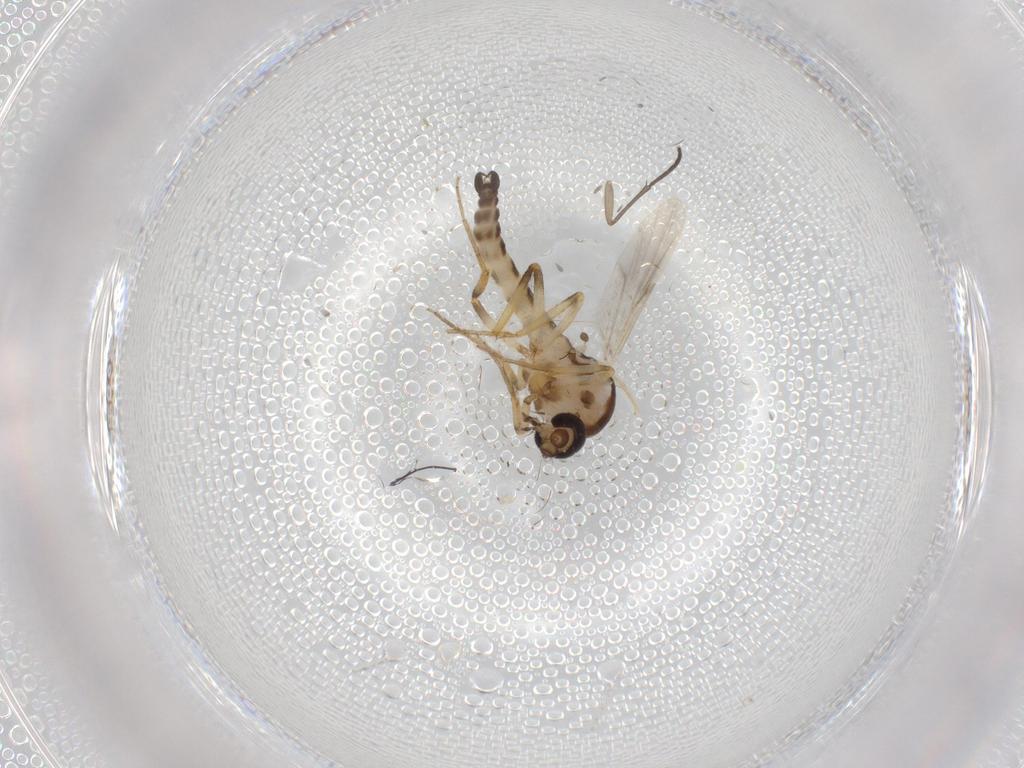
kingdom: Animalia
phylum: Arthropoda
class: Insecta
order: Diptera
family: Ceratopogonidae
